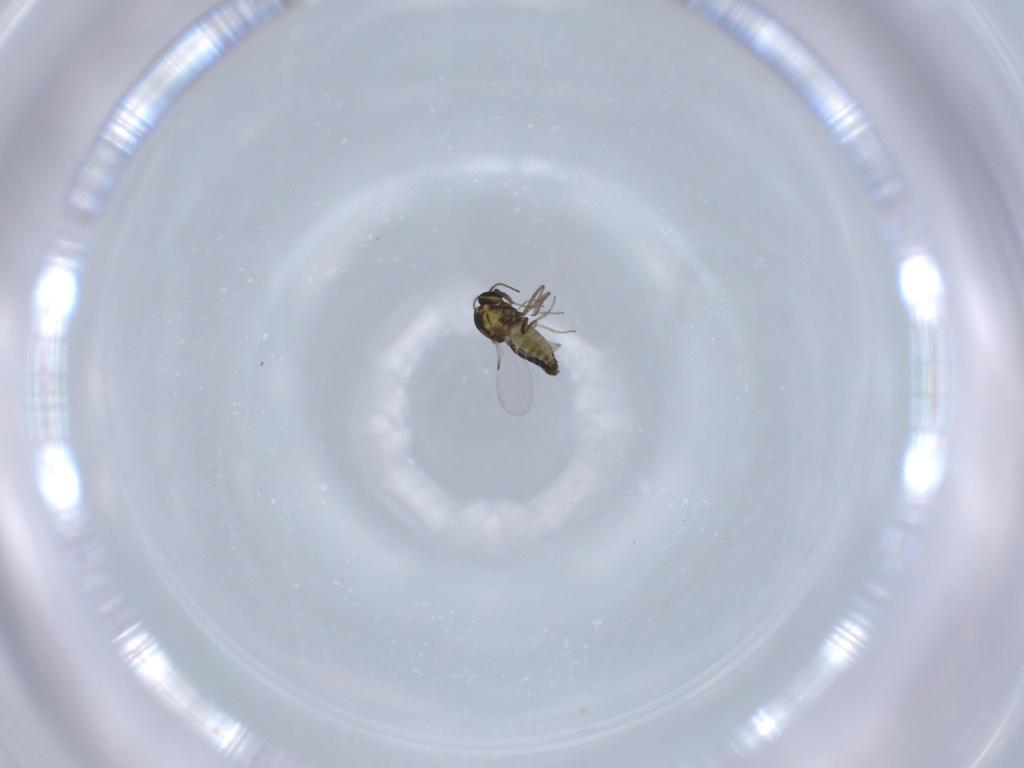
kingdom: Animalia
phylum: Arthropoda
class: Insecta
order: Diptera
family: Ceratopogonidae
